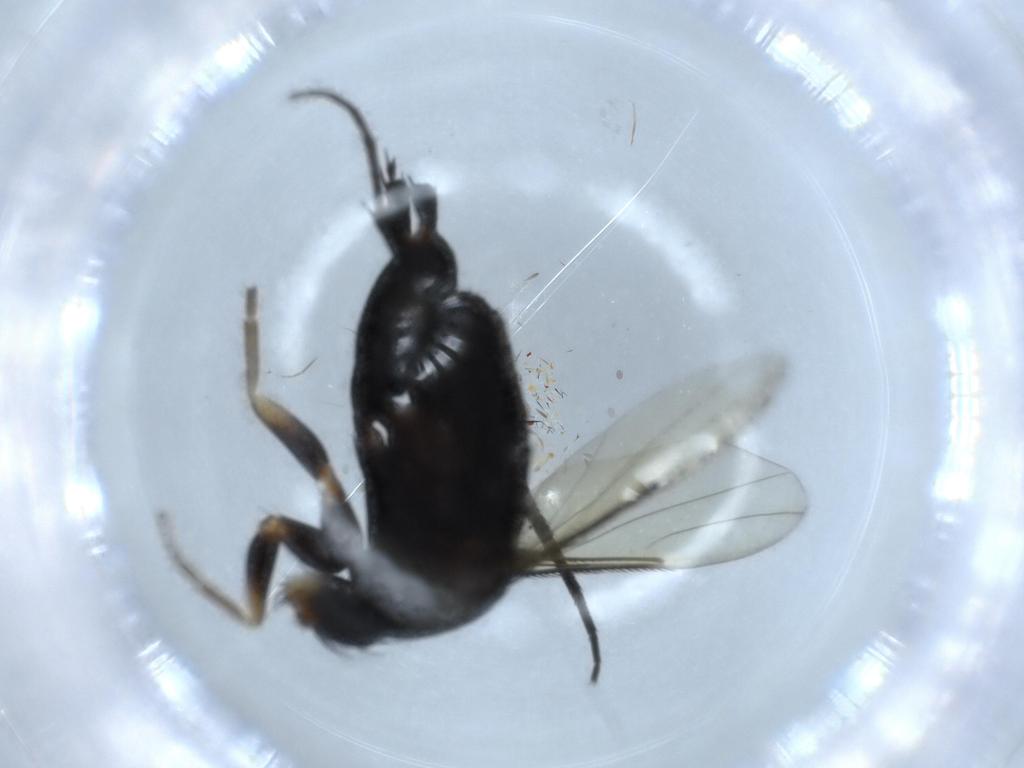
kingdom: Animalia
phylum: Arthropoda
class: Insecta
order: Diptera
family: Phoridae
